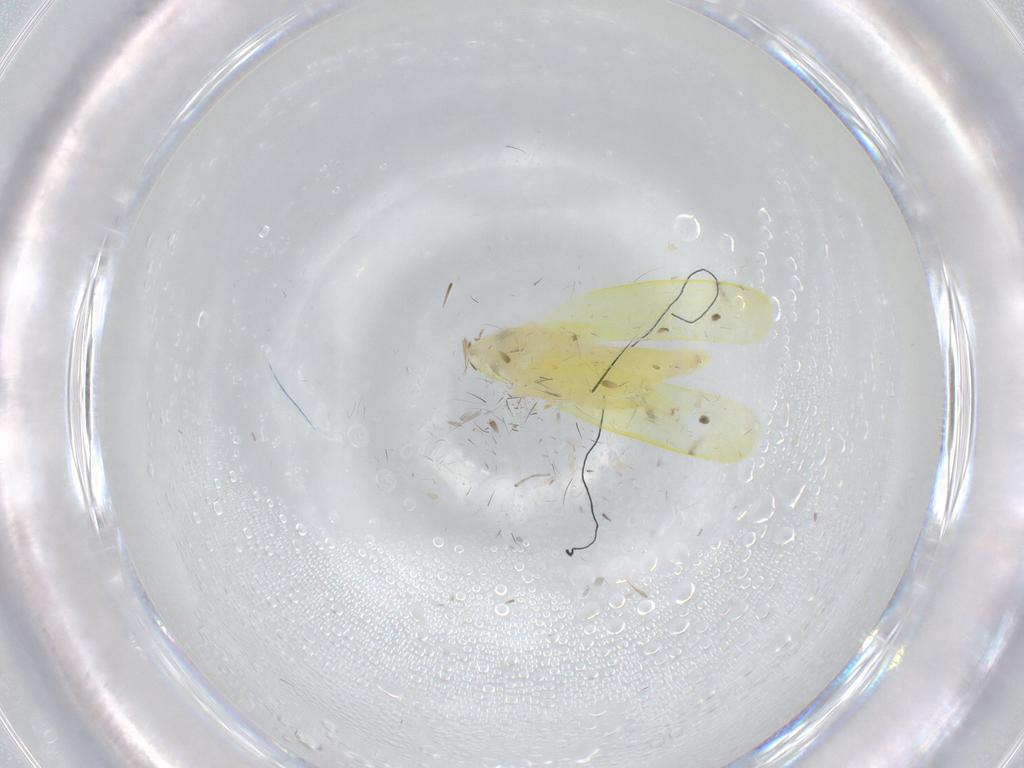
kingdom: Animalia
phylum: Arthropoda
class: Insecta
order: Hemiptera
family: Cicadellidae
